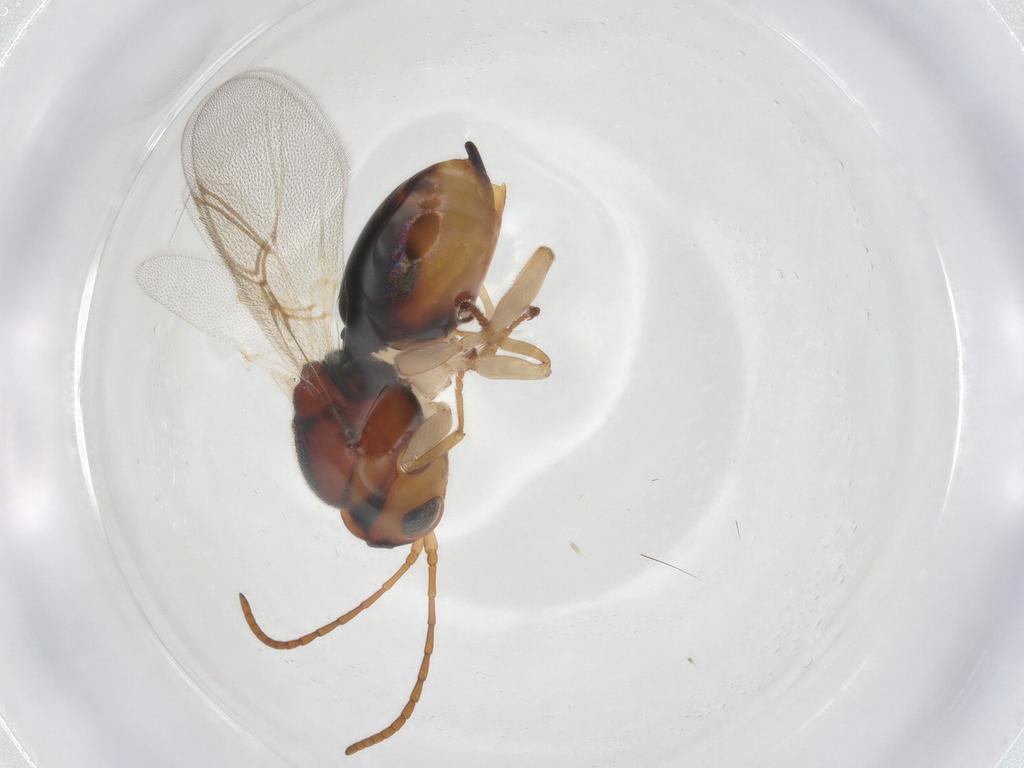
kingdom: Animalia
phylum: Arthropoda
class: Insecta
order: Hymenoptera
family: Cynipidae
